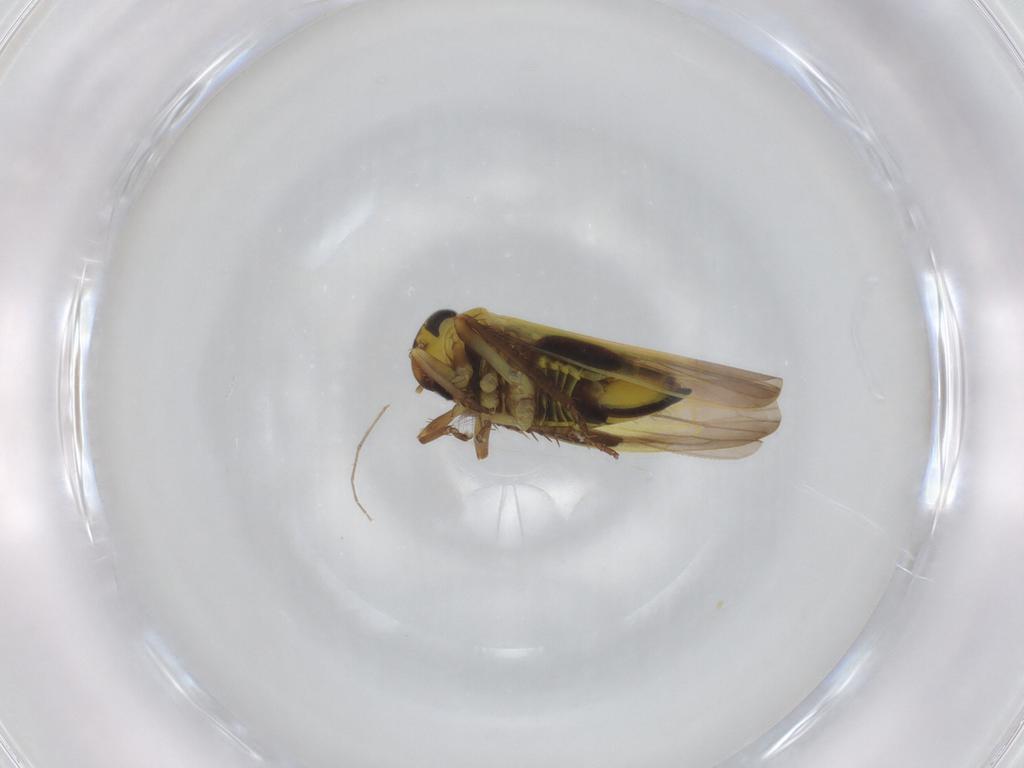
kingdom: Animalia
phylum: Arthropoda
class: Insecta
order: Hemiptera
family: Cicadellidae
